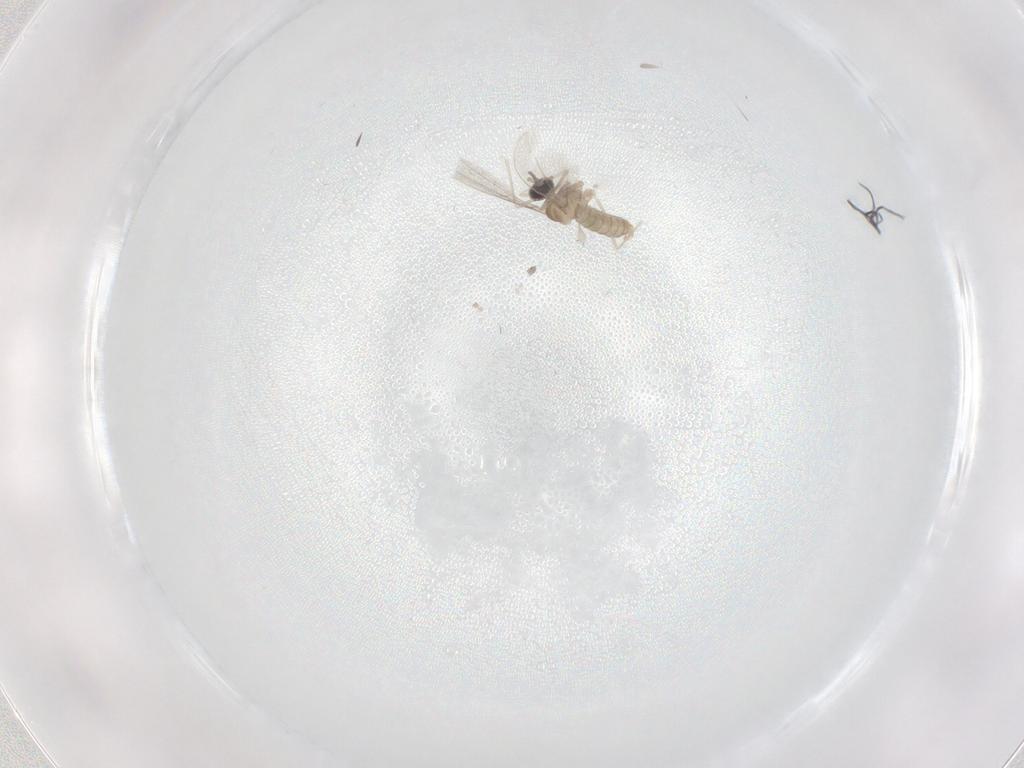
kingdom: Animalia
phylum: Arthropoda
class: Insecta
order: Diptera
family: Cecidomyiidae
